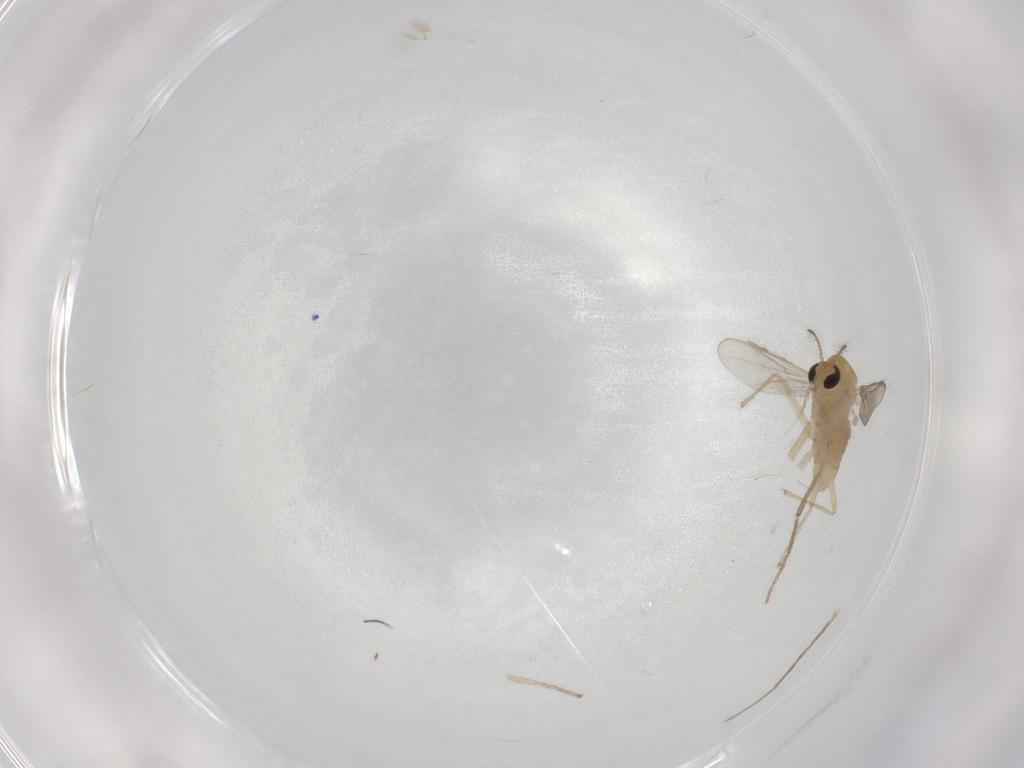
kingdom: Animalia
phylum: Arthropoda
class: Insecta
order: Diptera
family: Chironomidae
